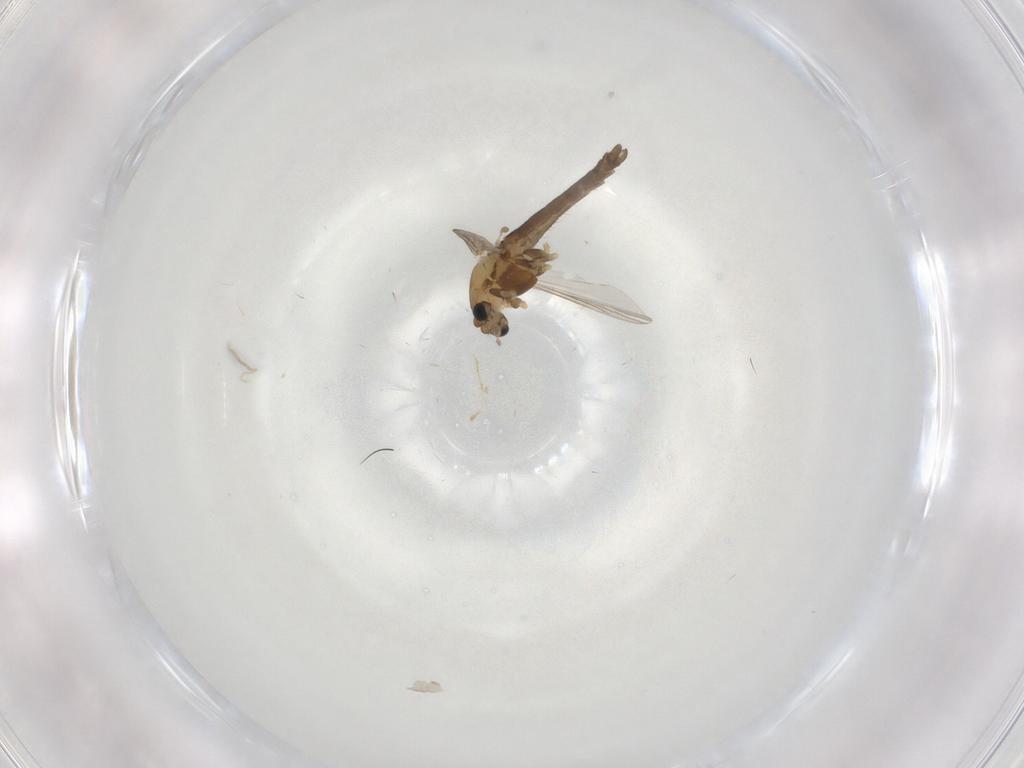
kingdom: Animalia
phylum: Arthropoda
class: Insecta
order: Diptera
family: Chironomidae
